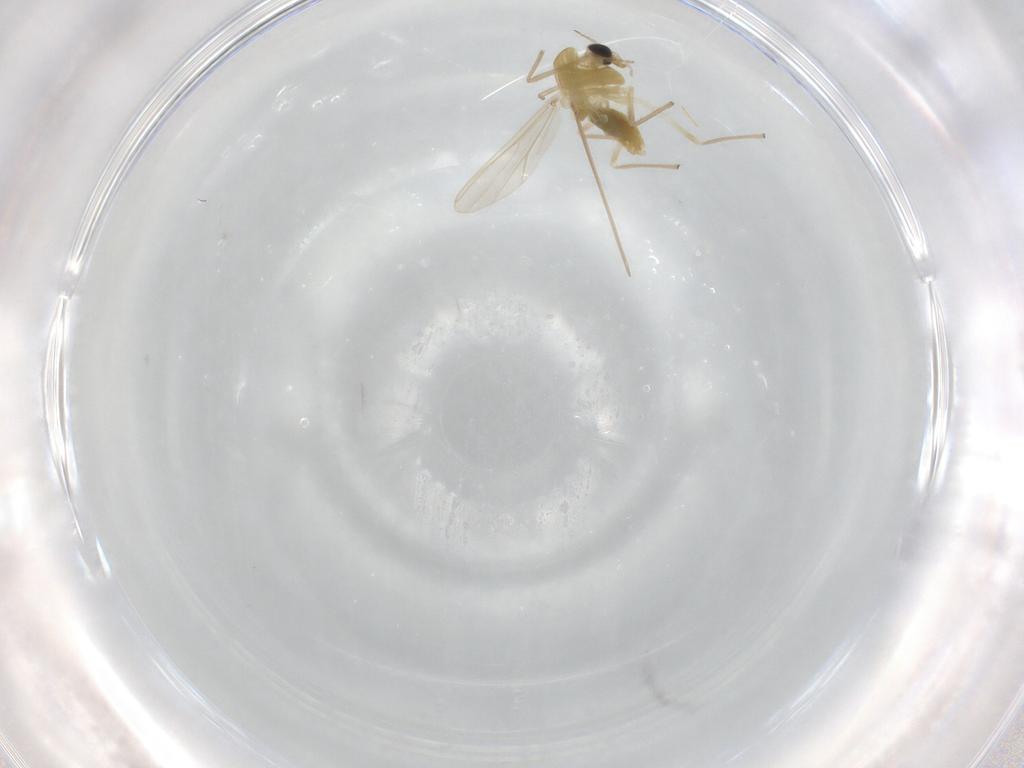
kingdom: Animalia
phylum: Arthropoda
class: Insecta
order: Diptera
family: Chironomidae
